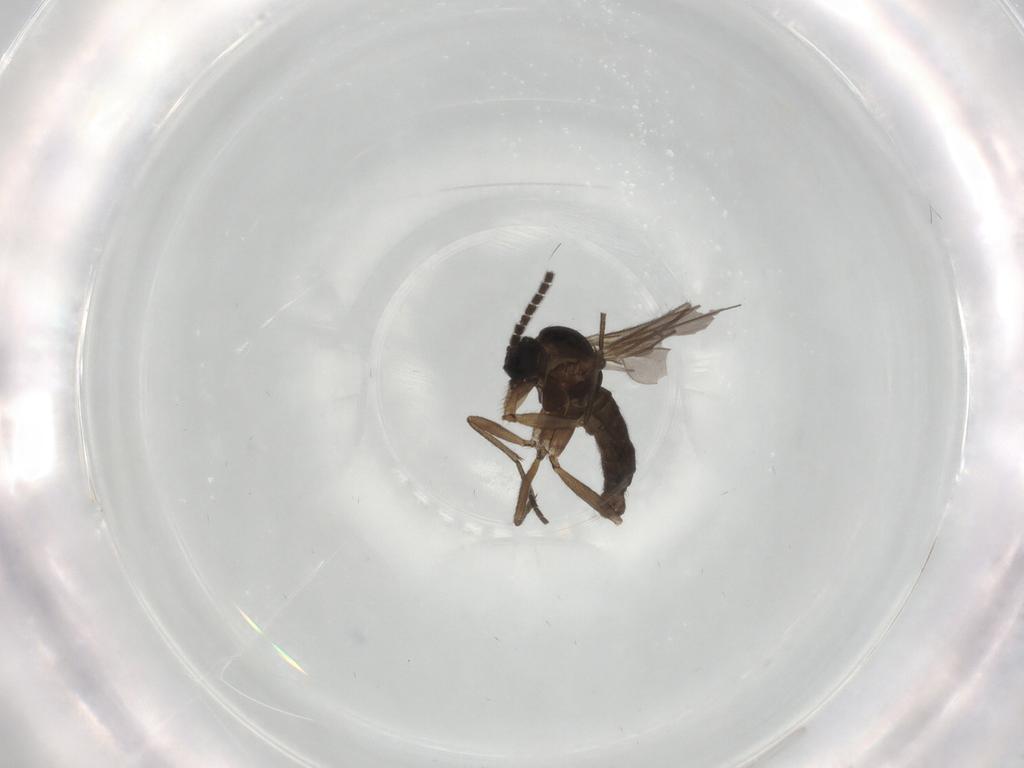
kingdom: Animalia
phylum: Arthropoda
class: Insecta
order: Diptera
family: Sciaridae
